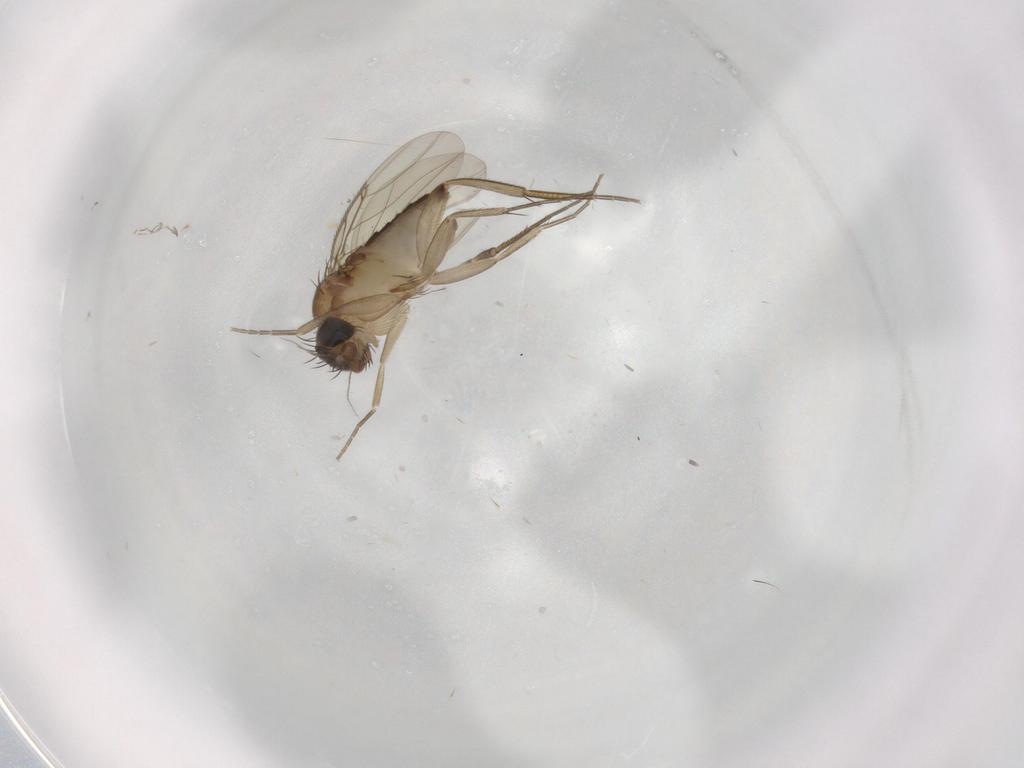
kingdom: Animalia
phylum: Arthropoda
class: Insecta
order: Diptera
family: Phoridae
